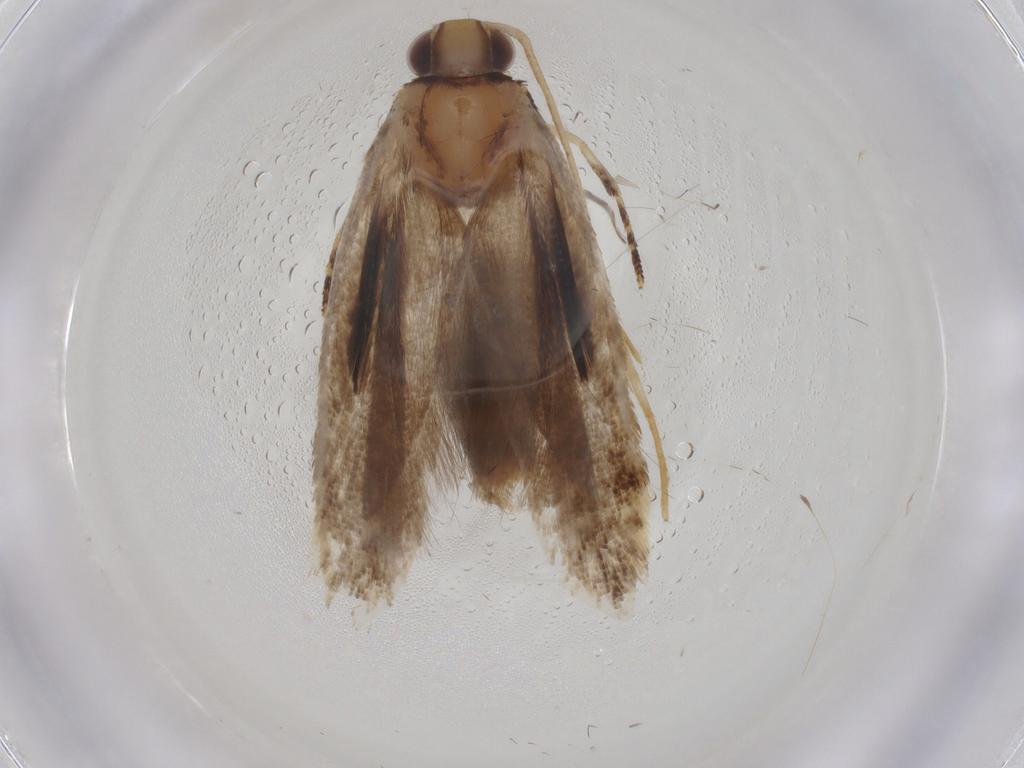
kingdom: Animalia
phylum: Arthropoda
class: Insecta
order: Lepidoptera
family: Gelechiidae
